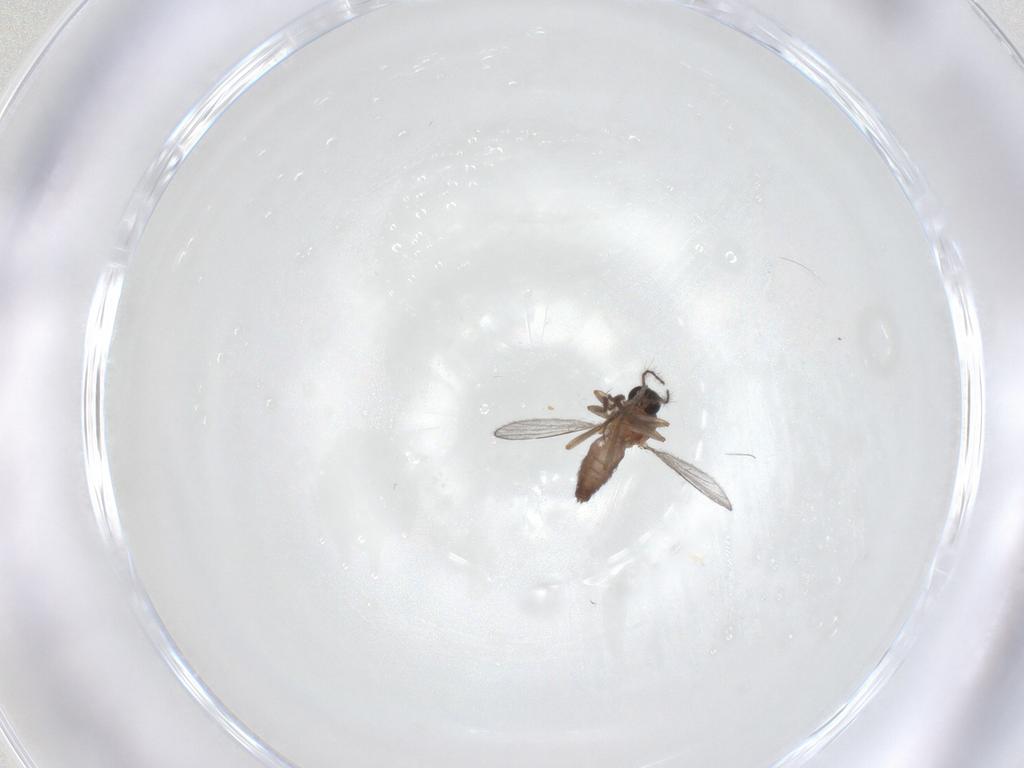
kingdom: Animalia
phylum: Arthropoda
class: Insecta
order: Diptera
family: Ceratopogonidae
